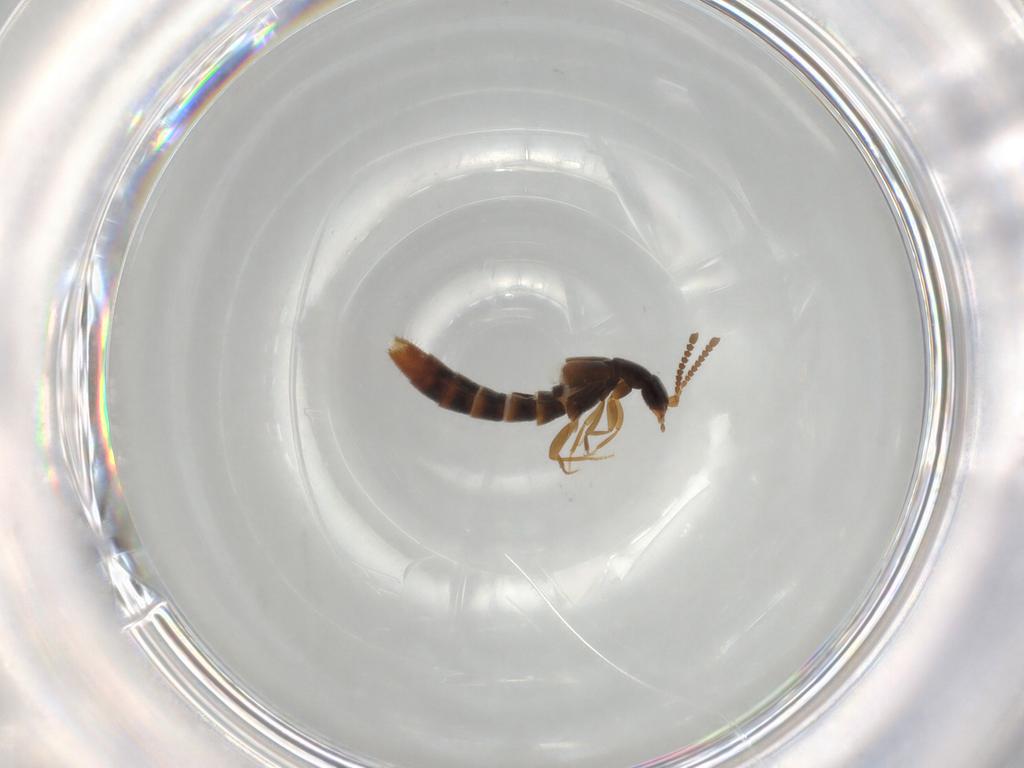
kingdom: Animalia
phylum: Arthropoda
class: Insecta
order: Coleoptera
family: Staphylinidae
